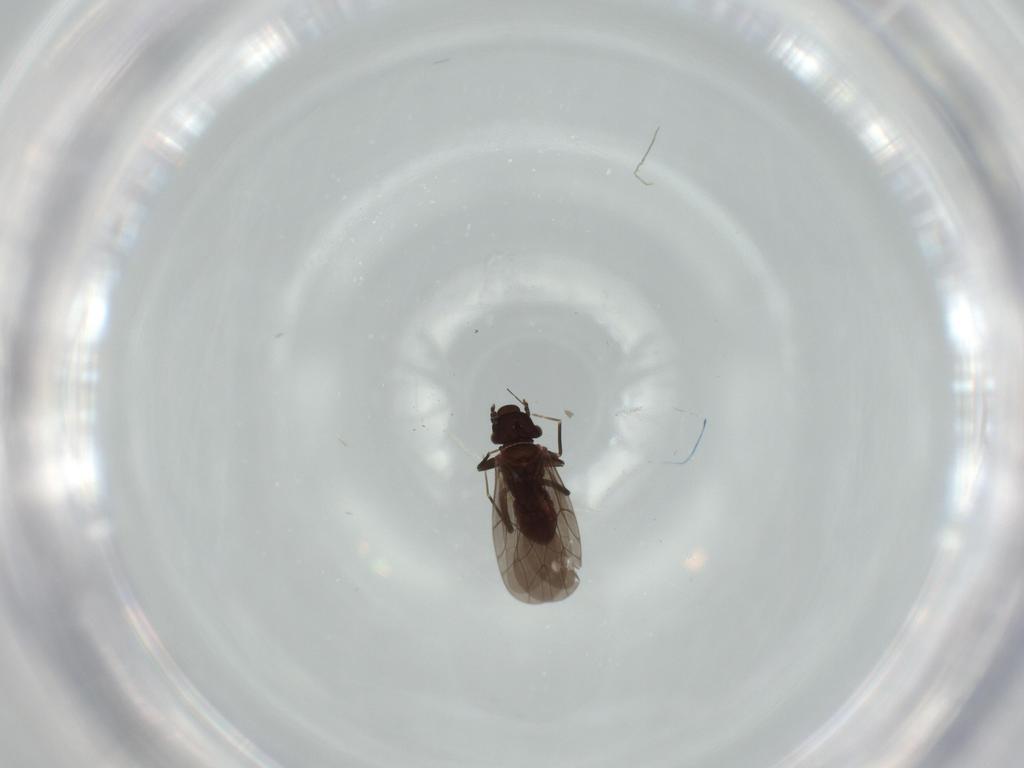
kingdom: Animalia
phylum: Arthropoda
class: Insecta
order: Psocodea
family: Lepidopsocidae
